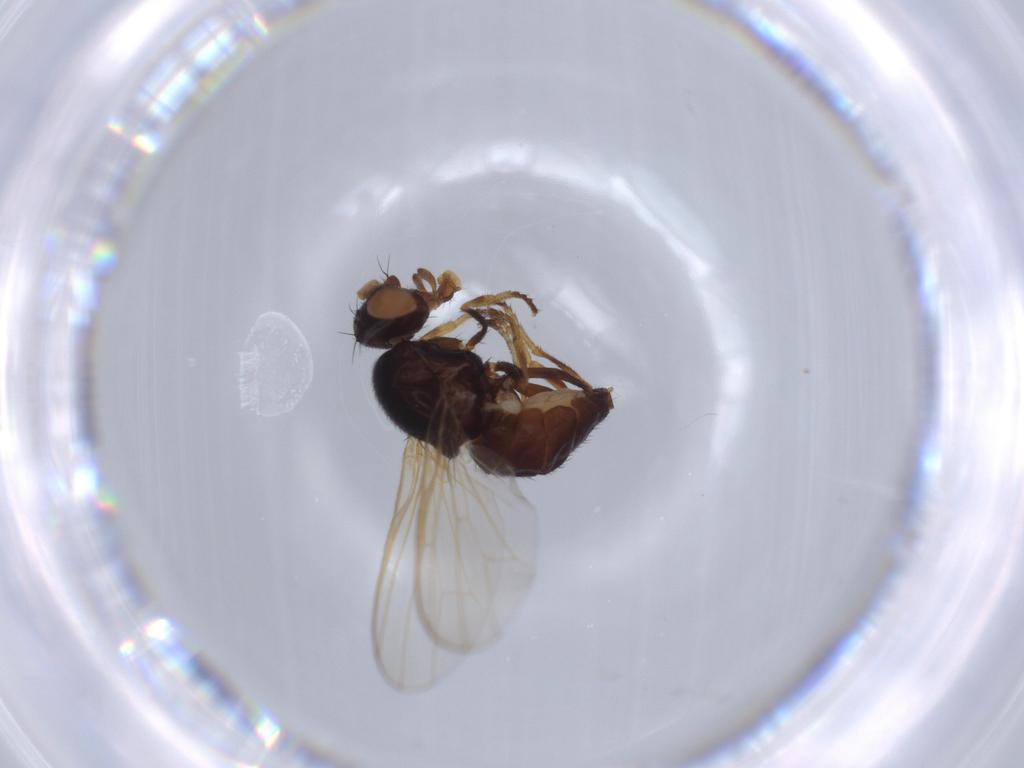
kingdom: Animalia
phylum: Arthropoda
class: Insecta
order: Diptera
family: Piophilidae
